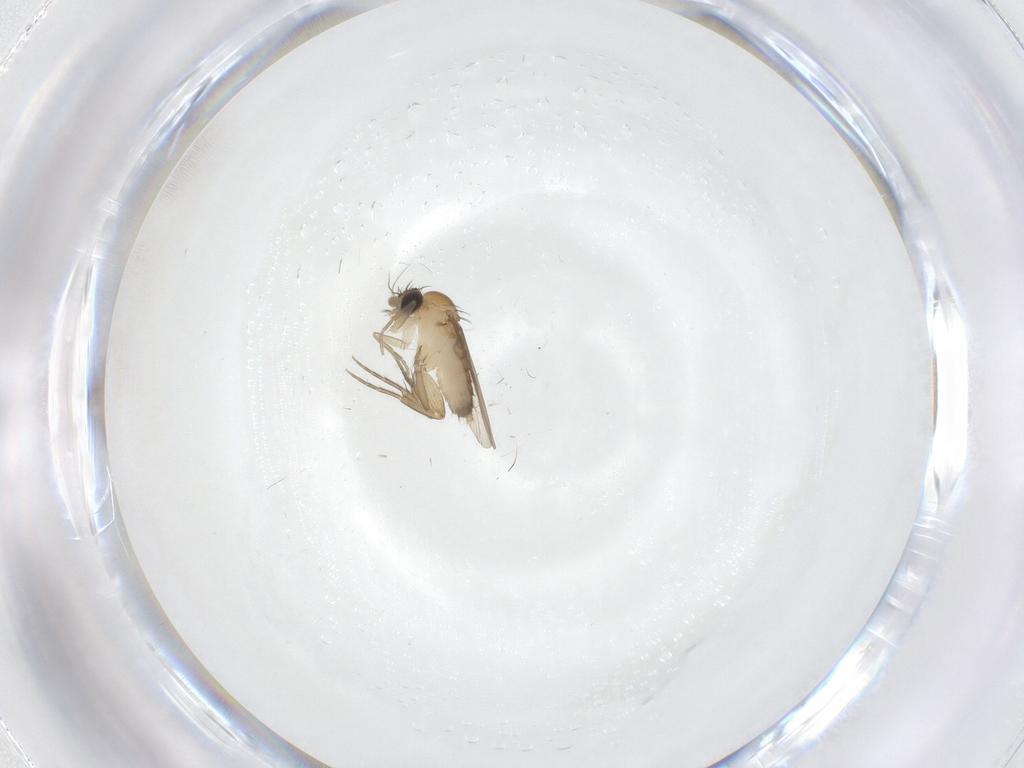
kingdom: Animalia
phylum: Arthropoda
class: Insecta
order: Diptera
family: Phoridae
